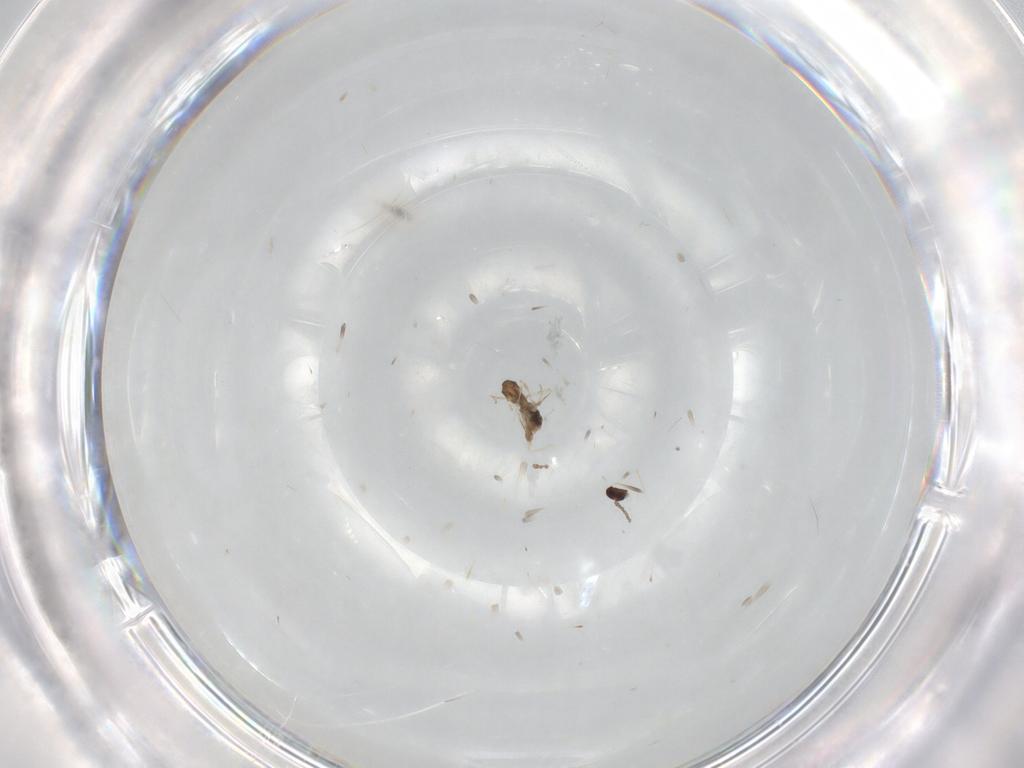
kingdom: Animalia
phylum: Arthropoda
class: Insecta
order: Diptera
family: Cecidomyiidae
